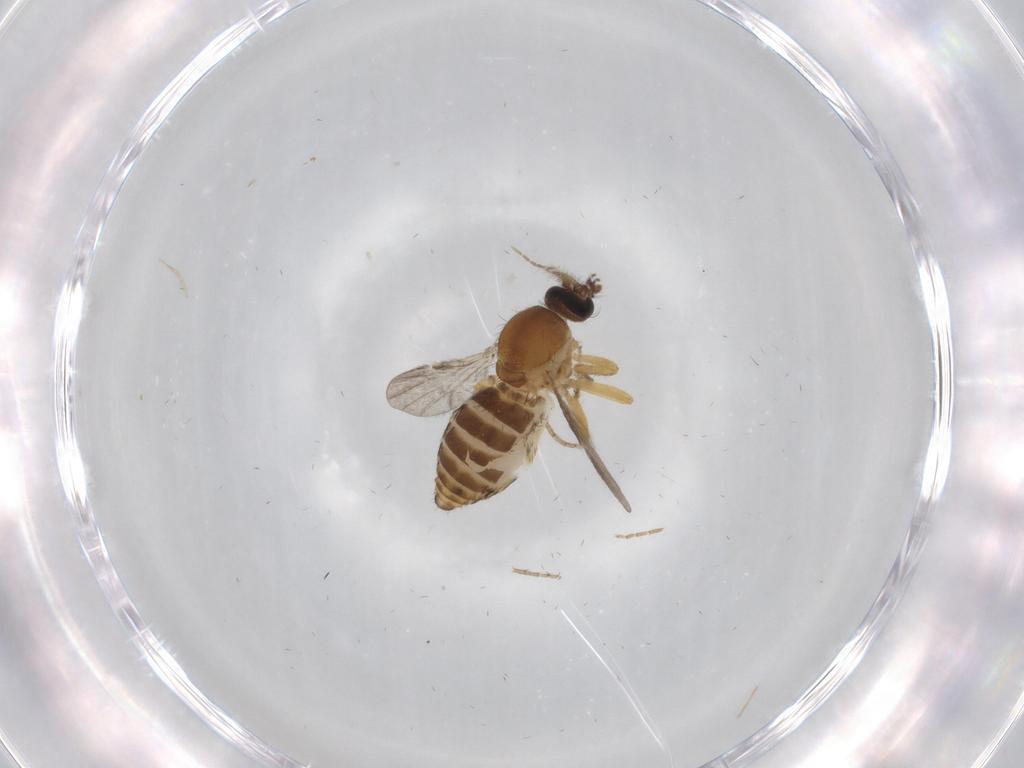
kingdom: Animalia
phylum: Arthropoda
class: Insecta
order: Diptera
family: Ceratopogonidae
